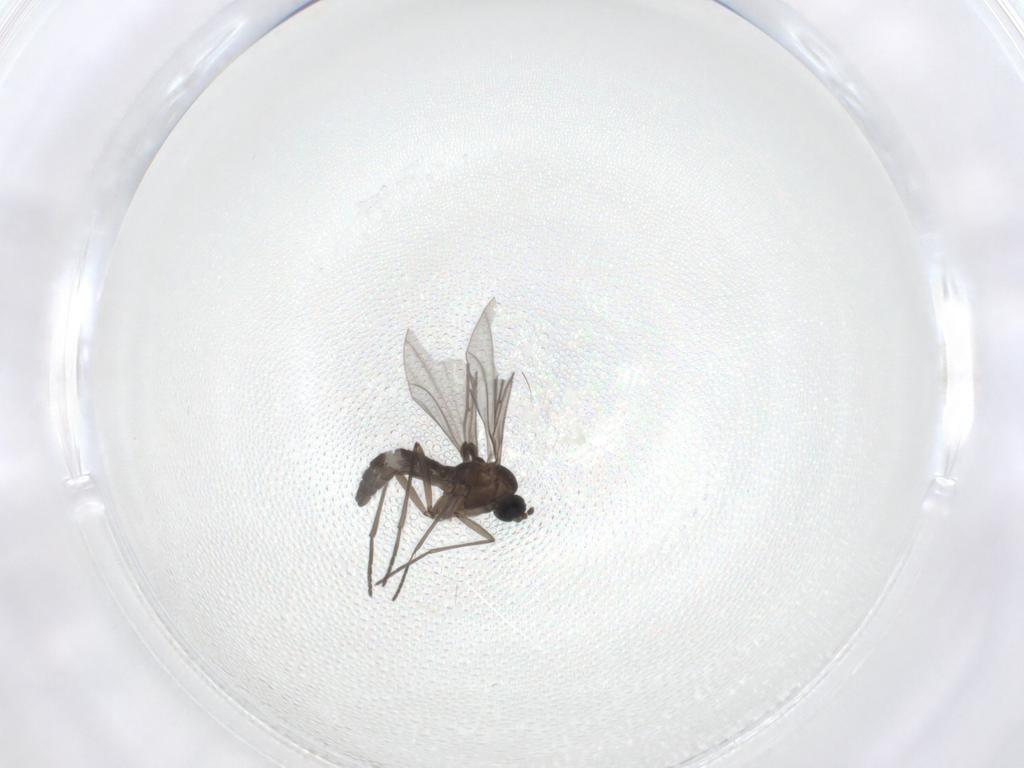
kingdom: Animalia
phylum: Arthropoda
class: Insecta
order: Diptera
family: Sciaridae
